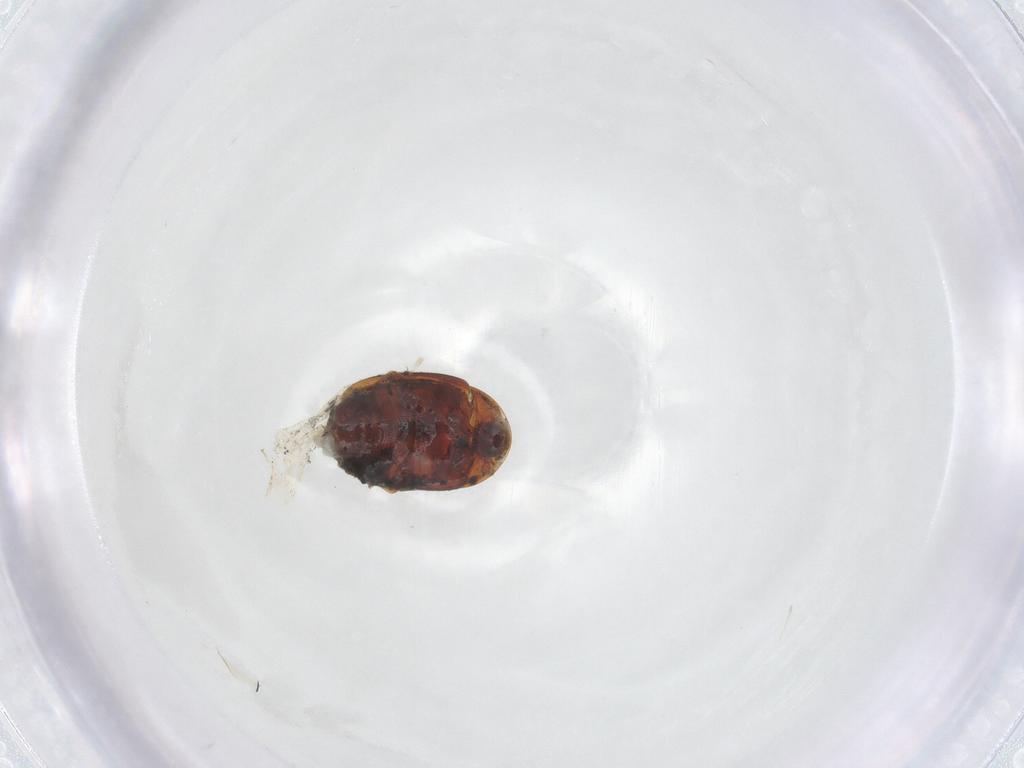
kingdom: Animalia
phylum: Arthropoda
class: Insecta
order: Coleoptera
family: Corylophidae
